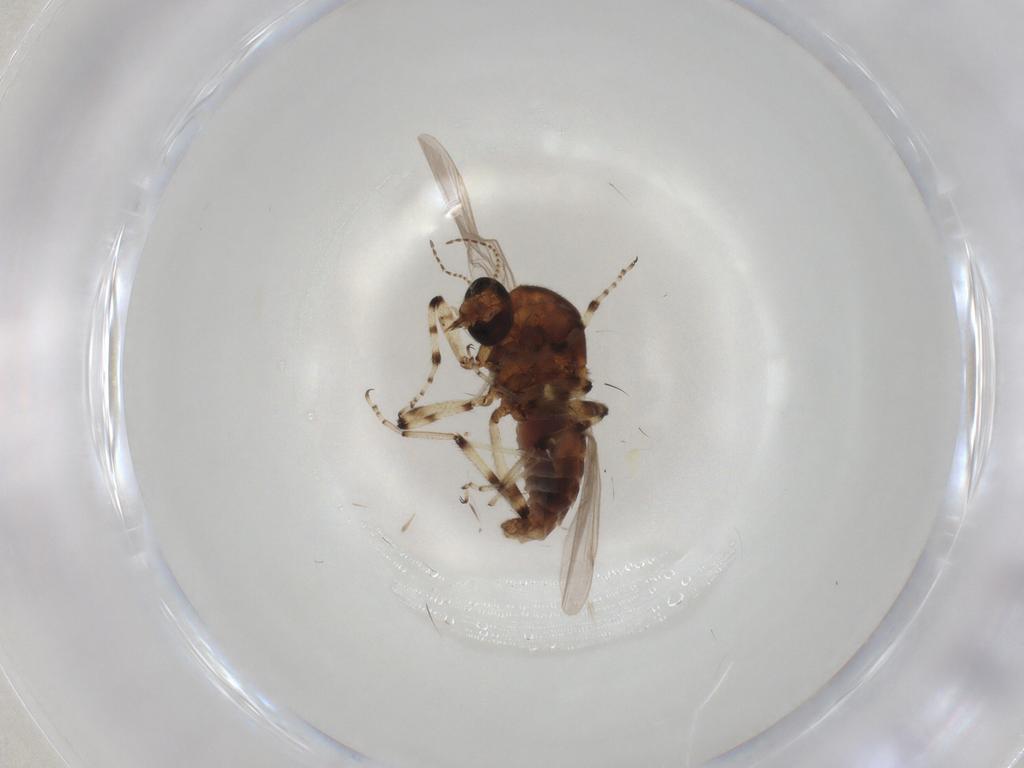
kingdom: Animalia
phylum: Arthropoda
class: Insecta
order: Diptera
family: Ceratopogonidae
